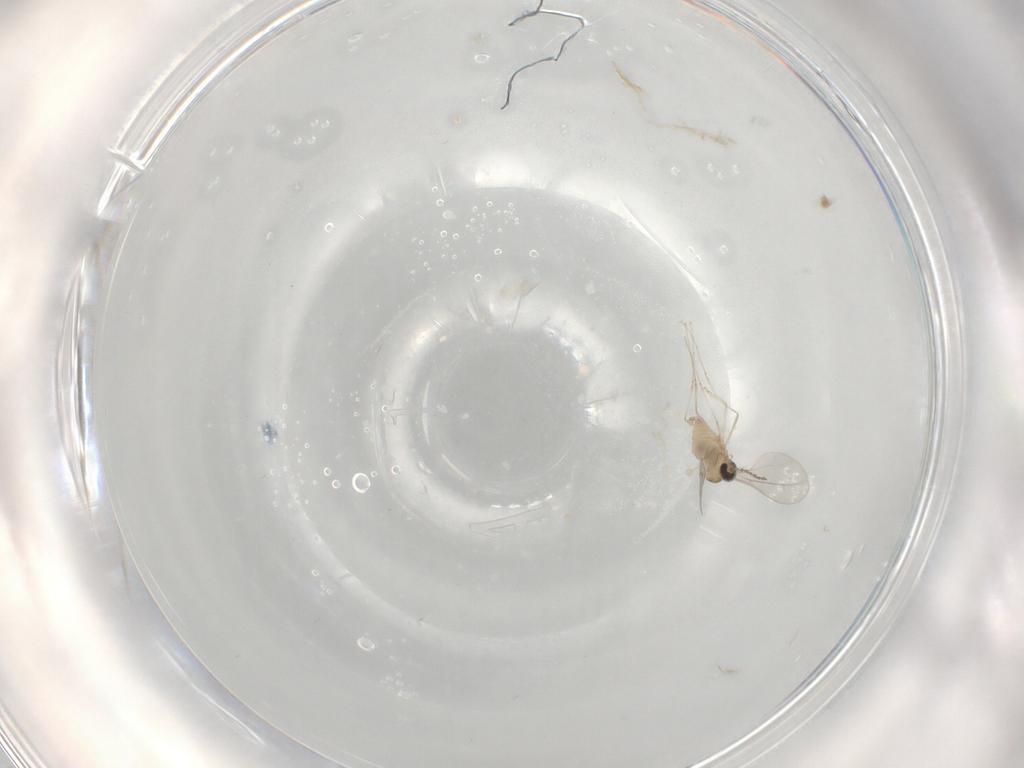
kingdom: Animalia
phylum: Arthropoda
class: Insecta
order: Diptera
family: Cecidomyiidae
